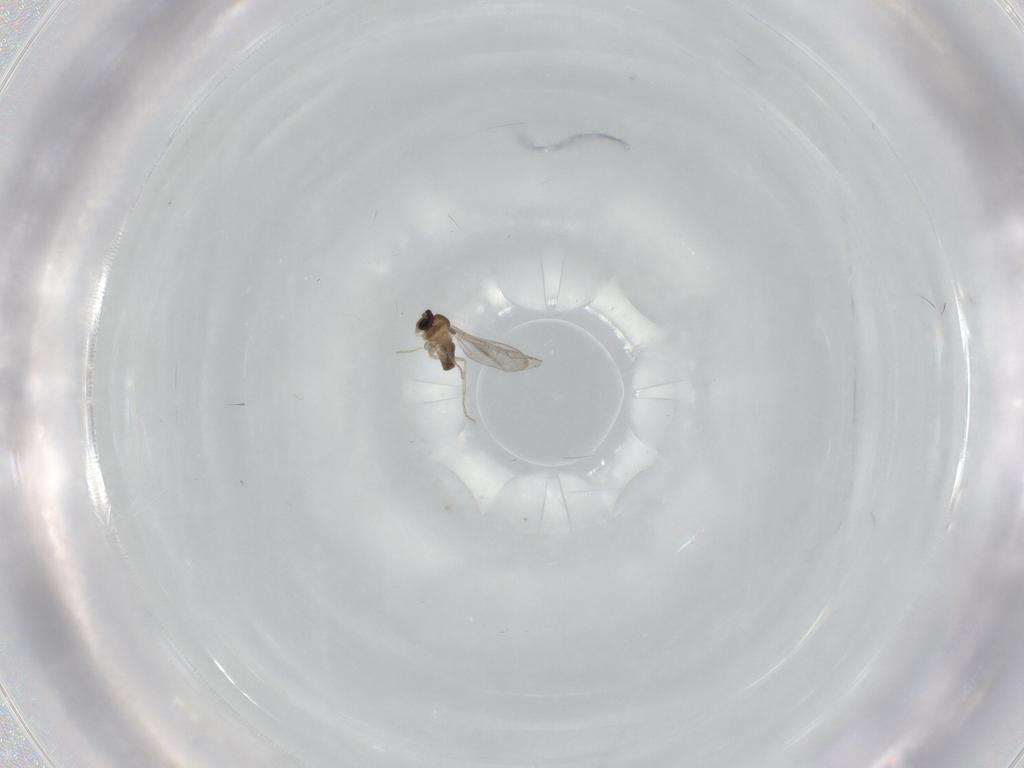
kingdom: Animalia
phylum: Arthropoda
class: Insecta
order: Diptera
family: Cecidomyiidae
